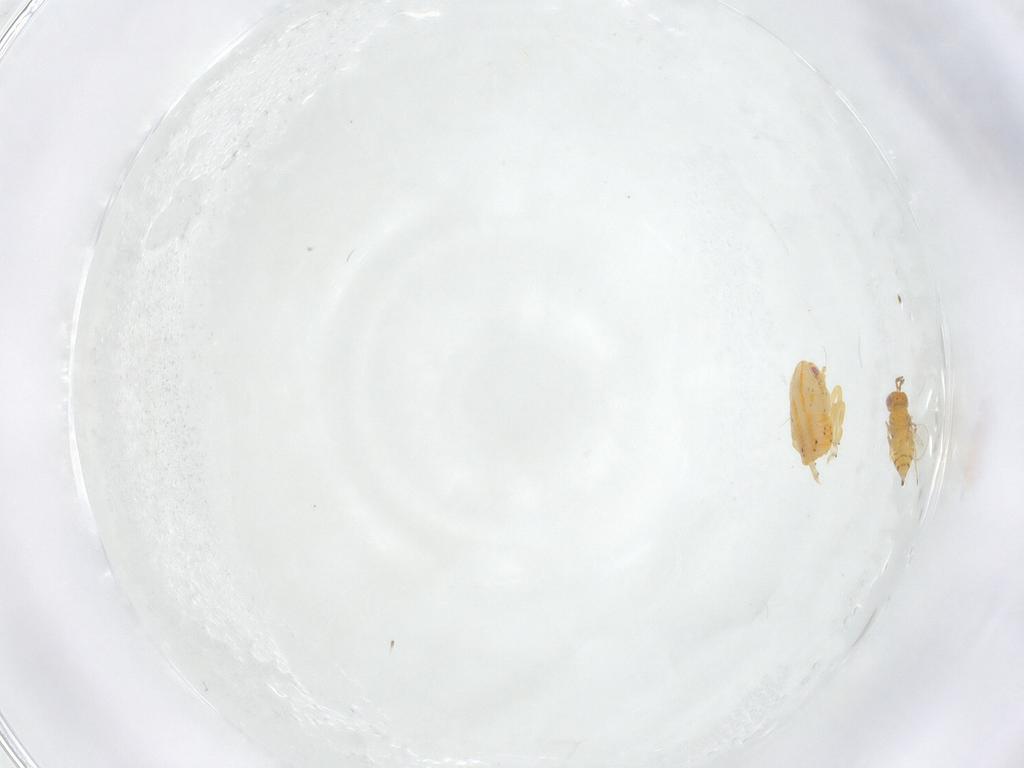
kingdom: Animalia
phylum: Arthropoda
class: Insecta
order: Hymenoptera
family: Trichogrammatidae
